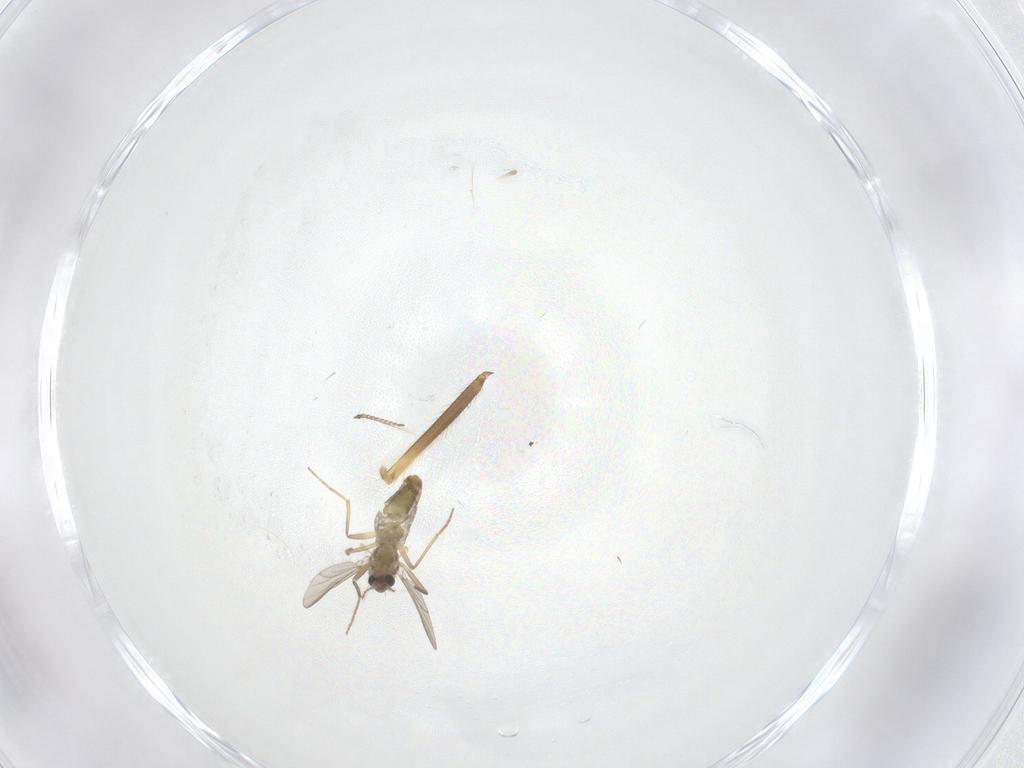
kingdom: Animalia
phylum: Arthropoda
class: Insecta
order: Diptera
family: Chironomidae
